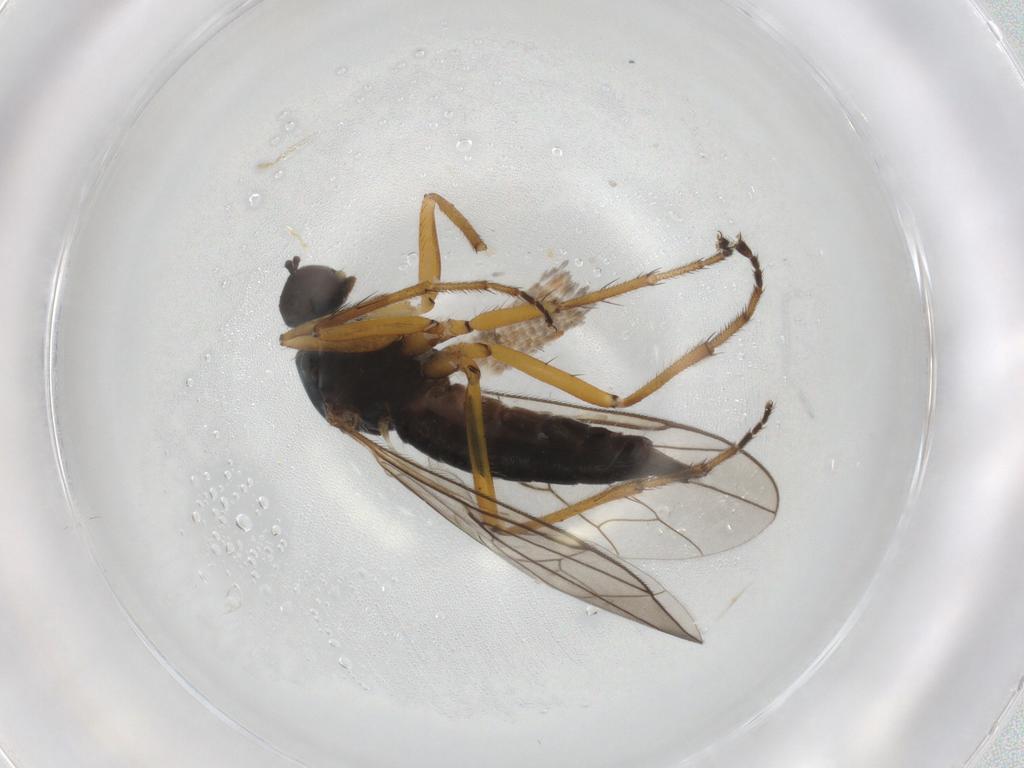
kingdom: Animalia
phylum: Arthropoda
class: Insecta
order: Diptera
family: Hybotidae
